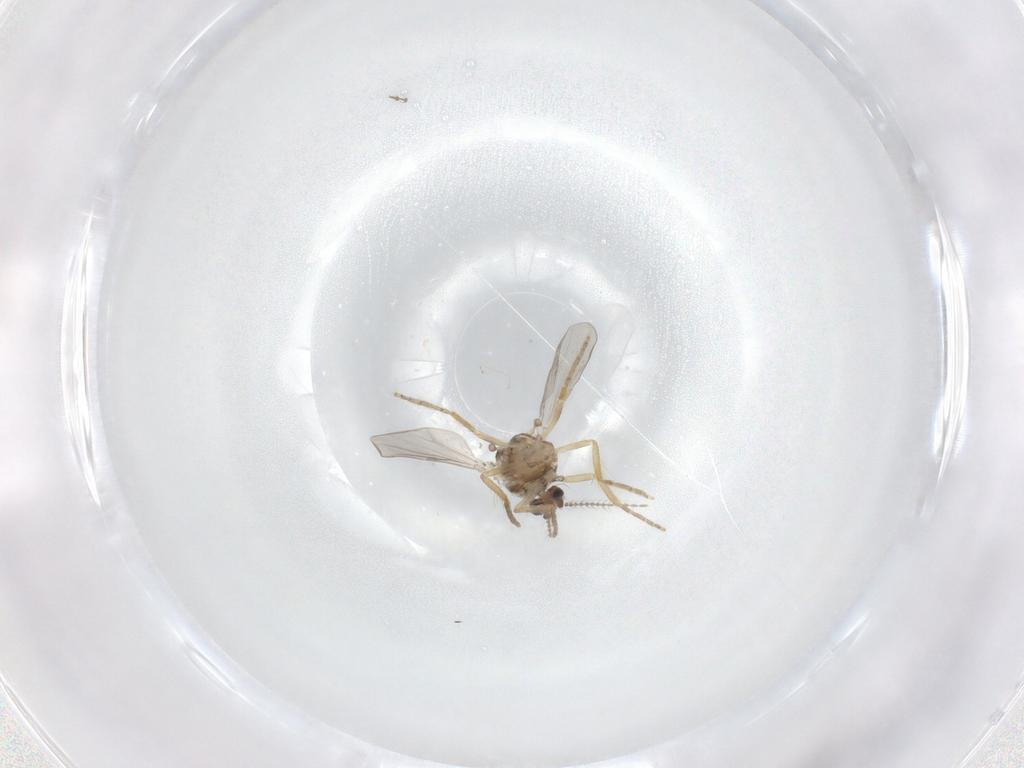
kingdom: Animalia
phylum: Arthropoda
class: Insecta
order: Diptera
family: Ceratopogonidae
